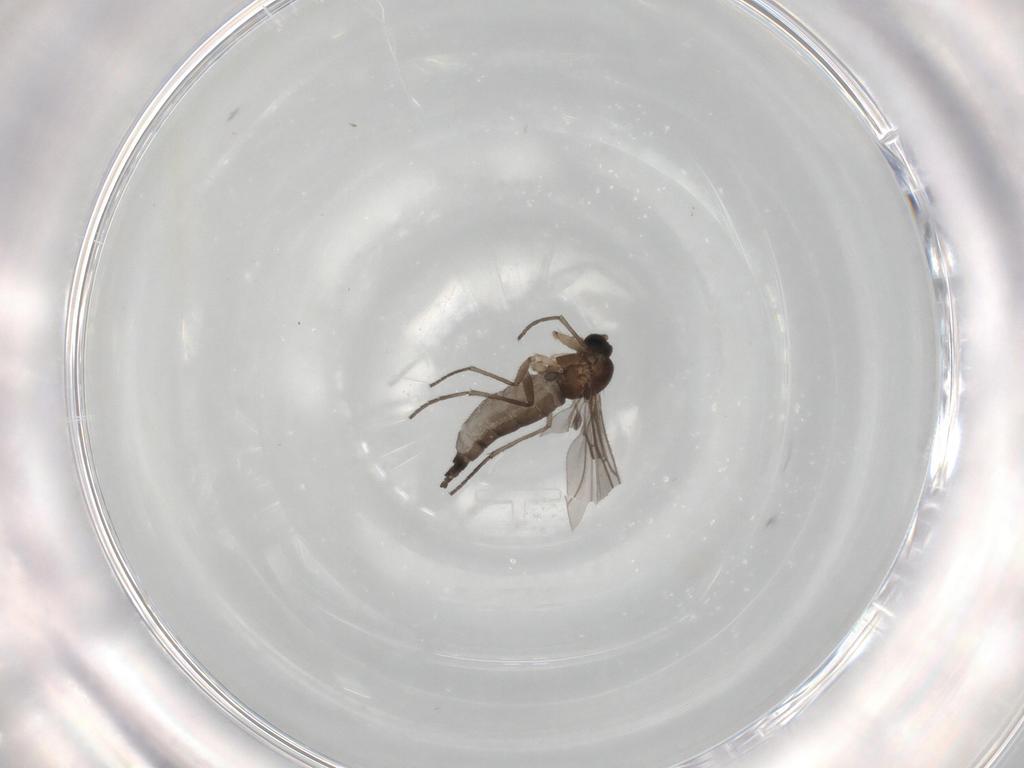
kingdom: Animalia
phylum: Arthropoda
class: Insecta
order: Diptera
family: Sciaridae
